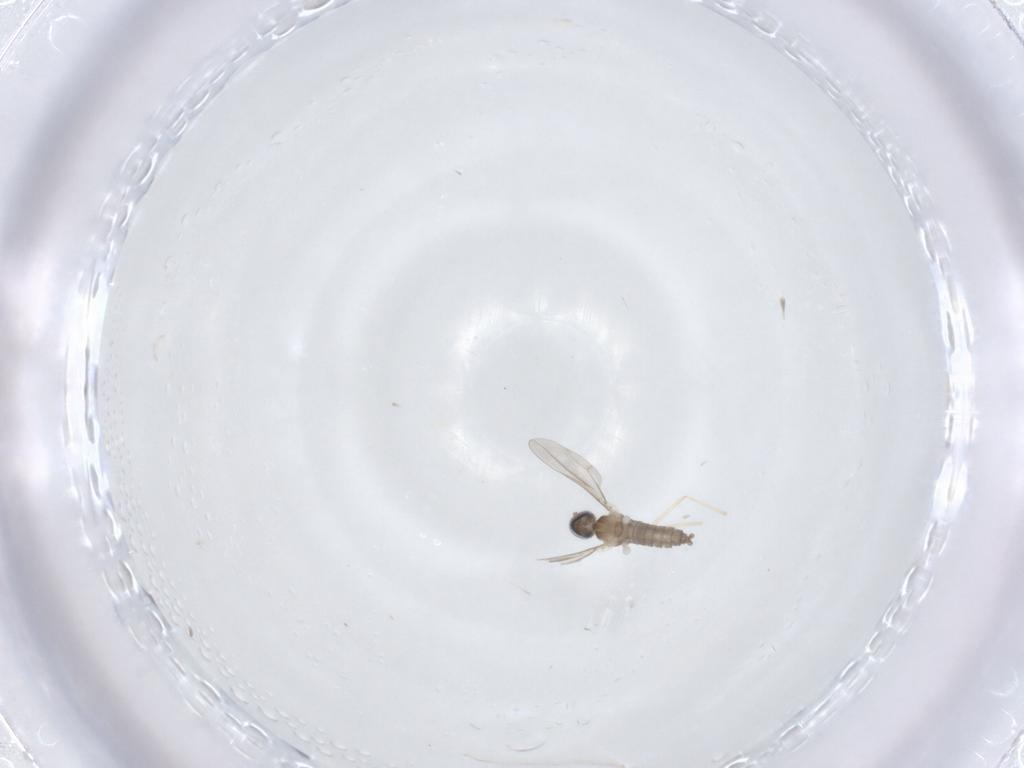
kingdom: Animalia
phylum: Arthropoda
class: Insecta
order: Diptera
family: Cecidomyiidae
